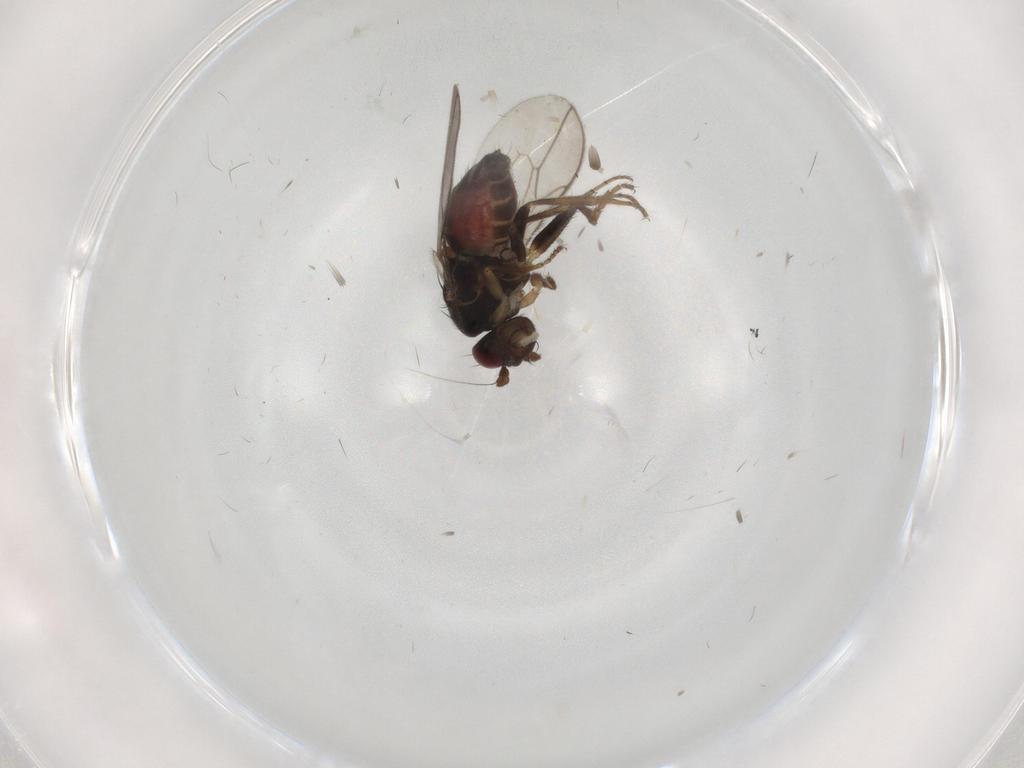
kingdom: Animalia
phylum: Arthropoda
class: Insecta
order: Diptera
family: Sphaeroceridae
